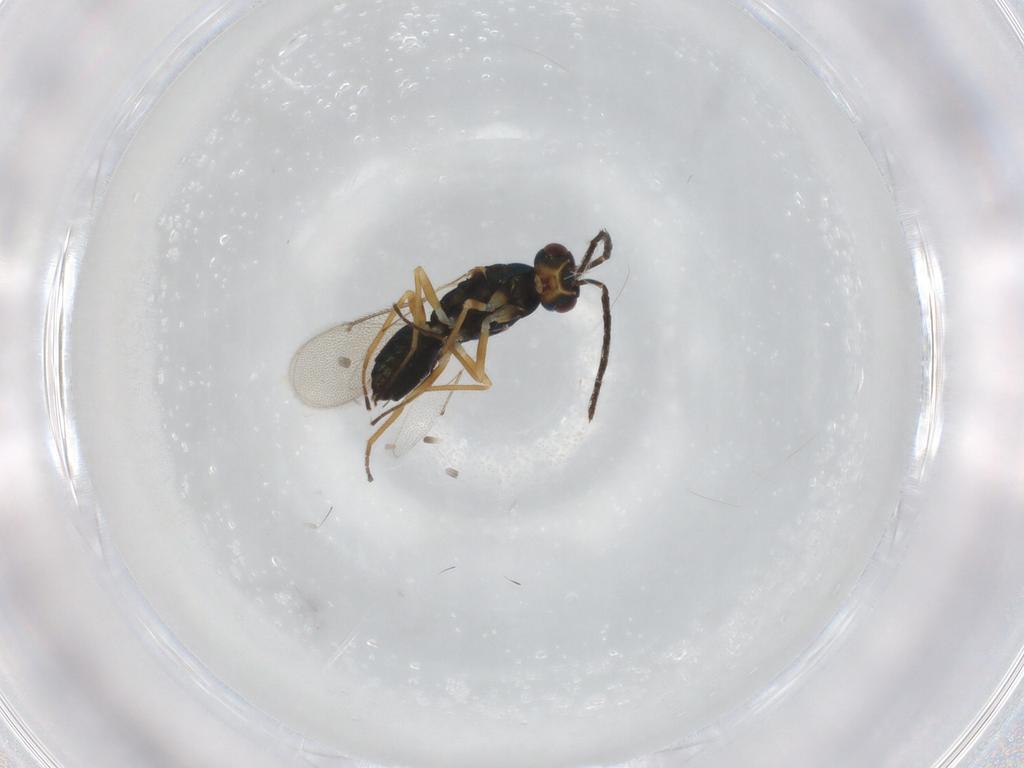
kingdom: Animalia
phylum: Arthropoda
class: Insecta
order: Hymenoptera
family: Eulophidae
